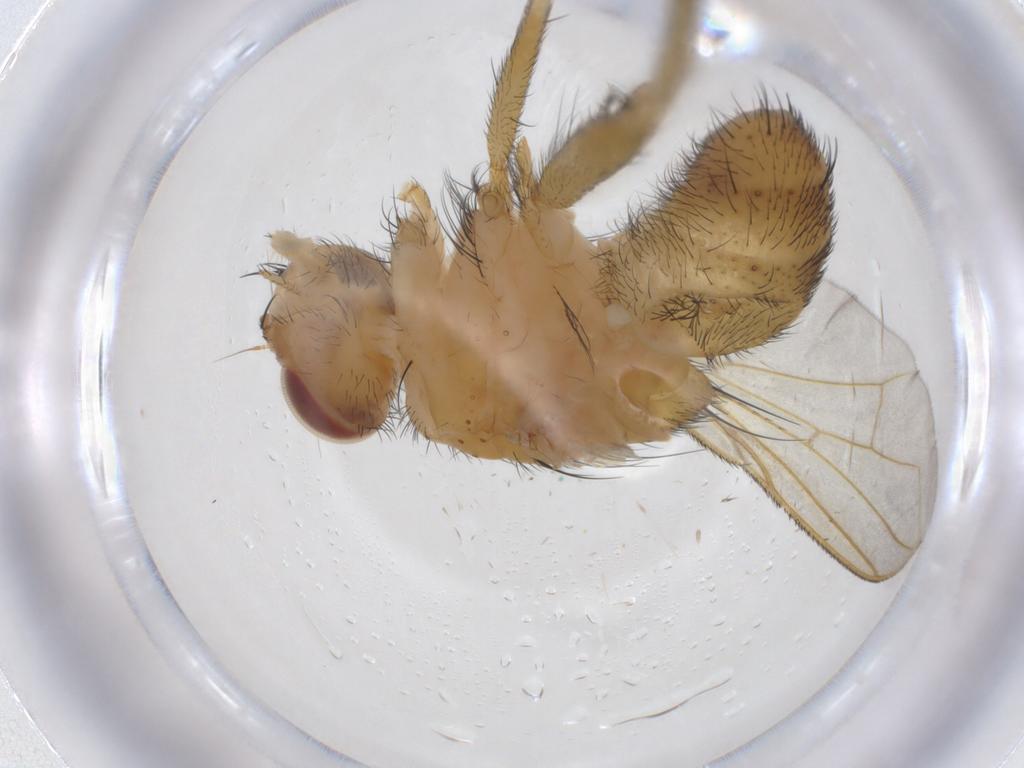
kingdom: Animalia
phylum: Arthropoda
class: Insecta
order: Diptera
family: Tachinidae
